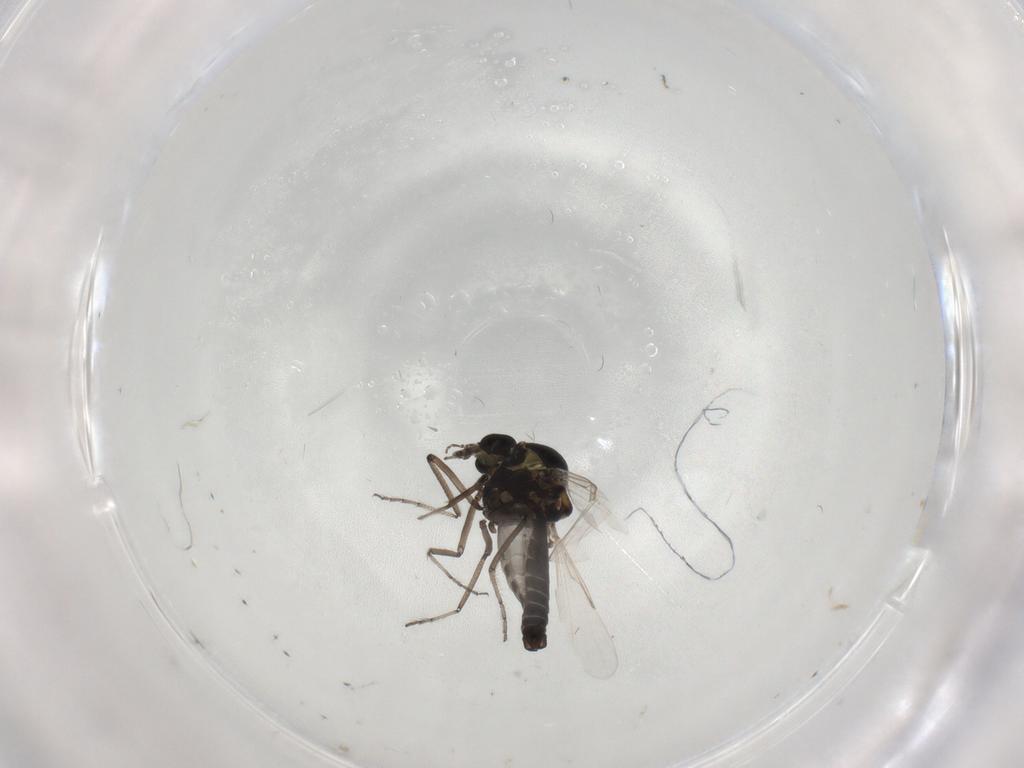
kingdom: Animalia
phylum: Arthropoda
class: Insecta
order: Diptera
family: Ceratopogonidae
